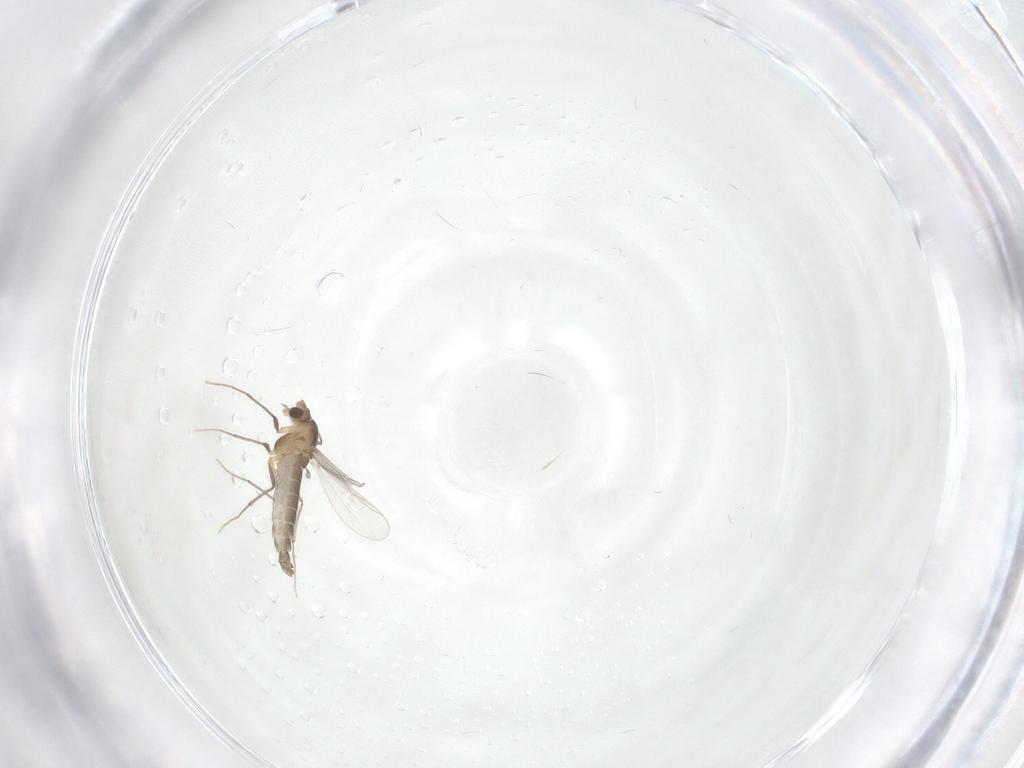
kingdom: Animalia
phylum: Arthropoda
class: Insecta
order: Diptera
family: Chironomidae
